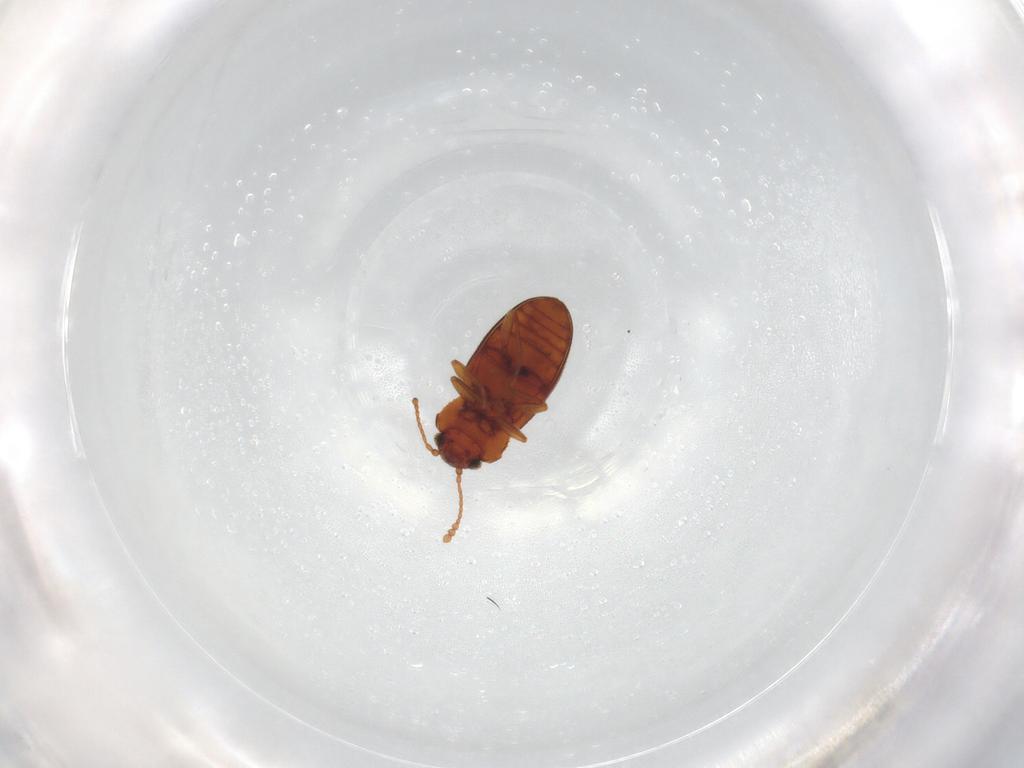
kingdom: Animalia
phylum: Arthropoda
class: Insecta
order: Coleoptera
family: Cryptophagidae
